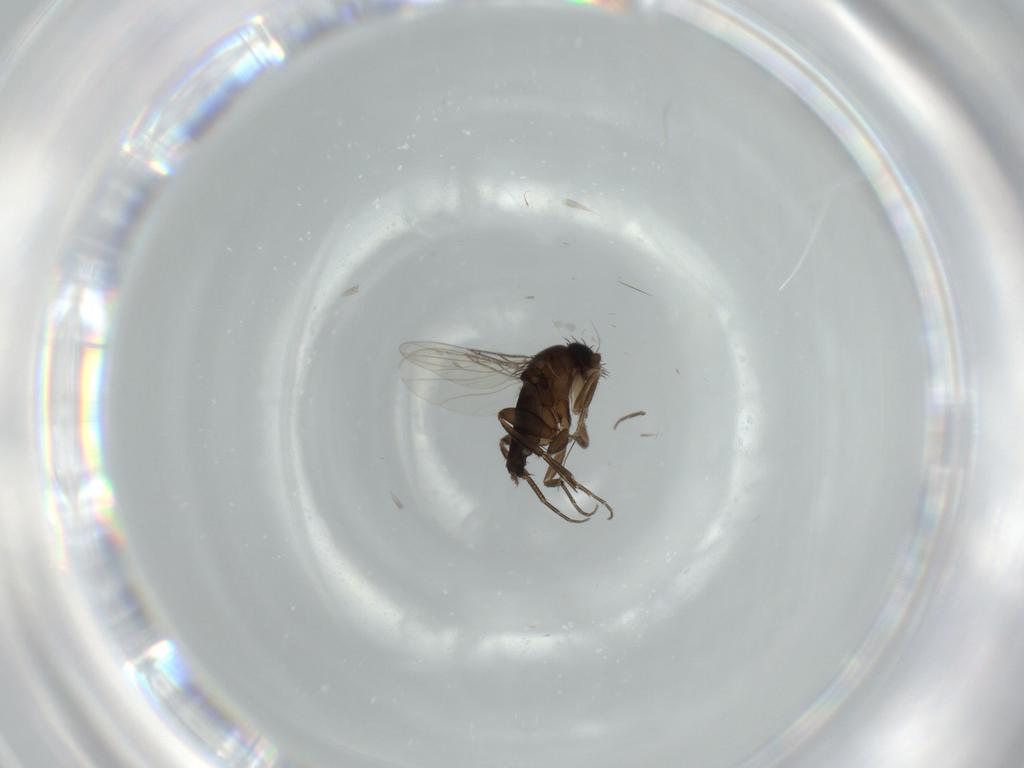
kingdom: Animalia
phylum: Arthropoda
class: Insecta
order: Diptera
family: Phoridae
